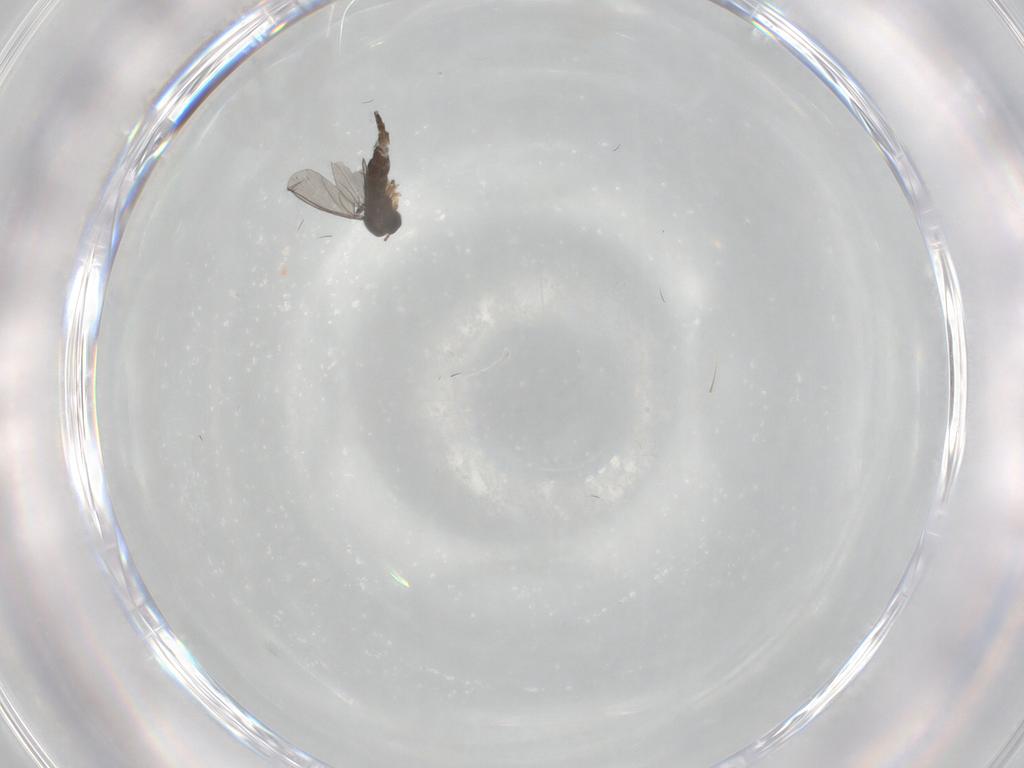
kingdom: Animalia
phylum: Arthropoda
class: Insecta
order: Diptera
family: Sciaridae
